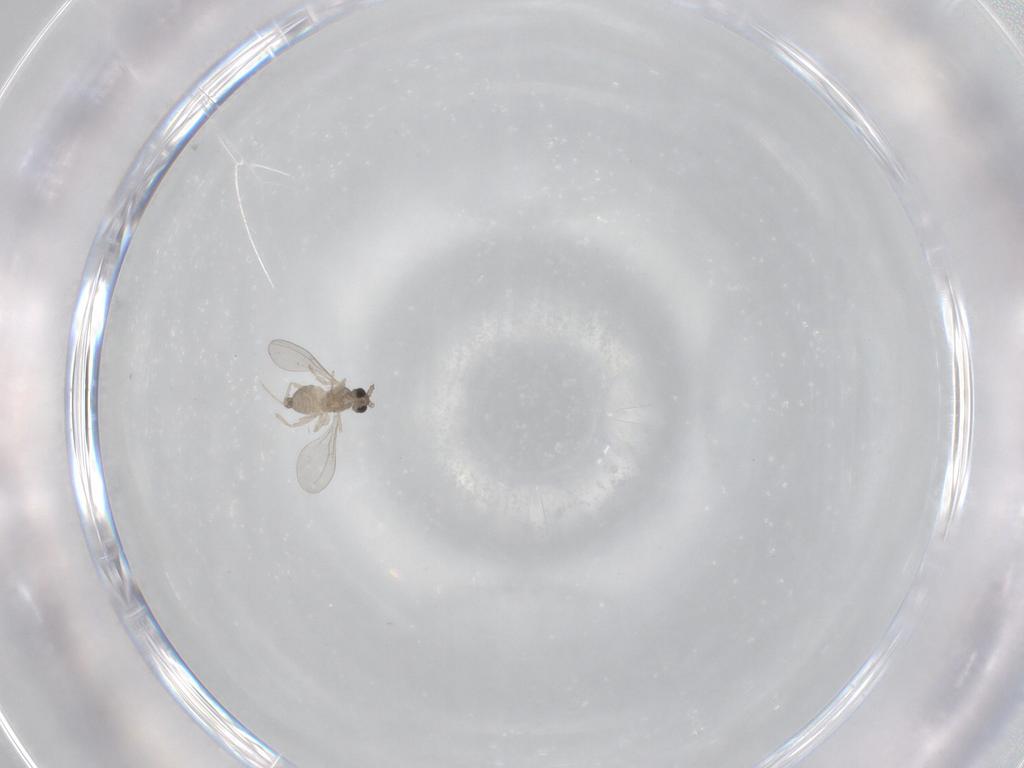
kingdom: Animalia
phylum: Arthropoda
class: Insecta
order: Diptera
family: Cecidomyiidae
